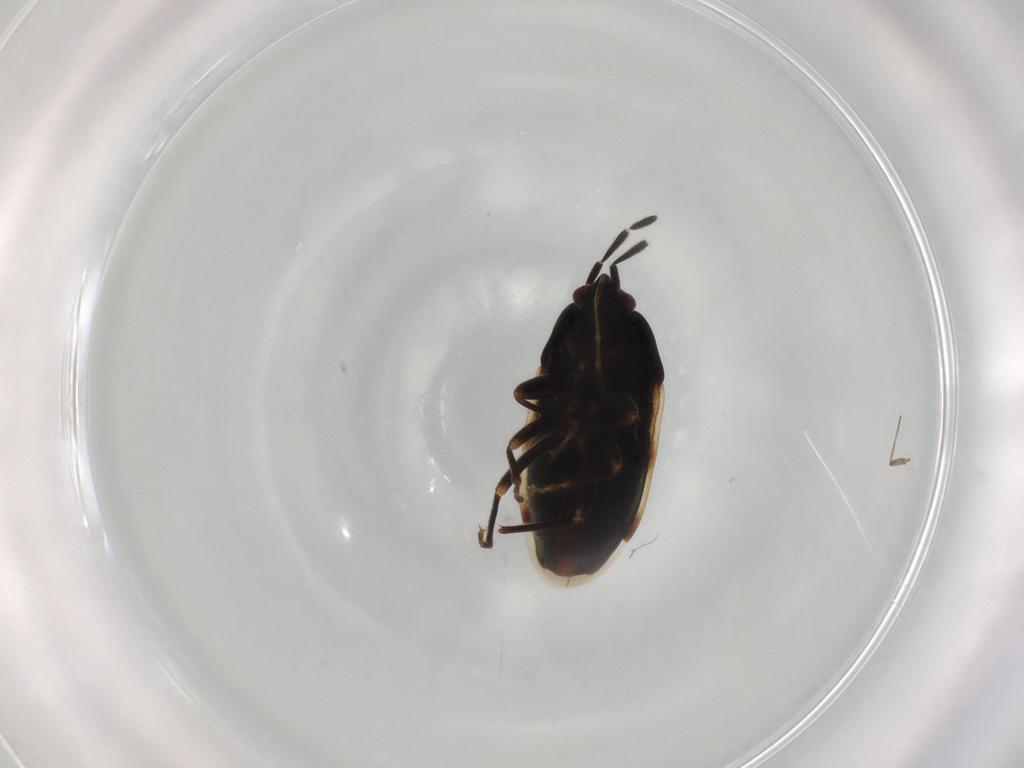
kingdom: Animalia
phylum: Arthropoda
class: Insecta
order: Hemiptera
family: Rhyparochromidae
